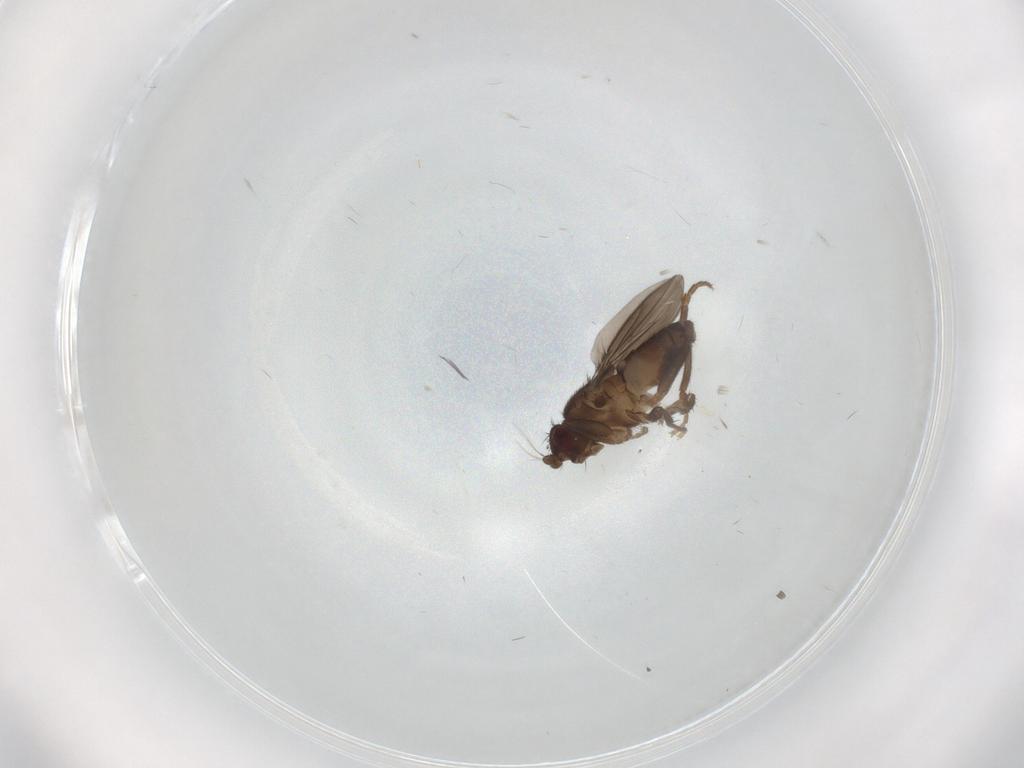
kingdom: Animalia
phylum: Arthropoda
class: Insecta
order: Diptera
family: Sphaeroceridae
